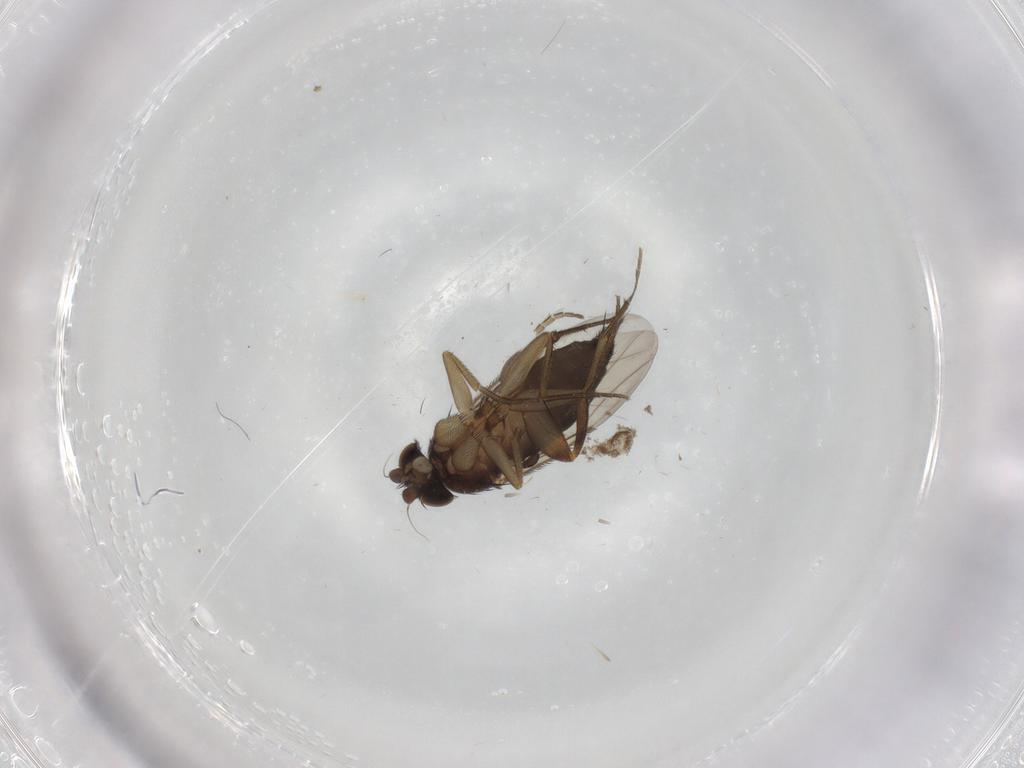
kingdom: Animalia
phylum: Arthropoda
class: Insecta
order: Diptera
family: Chironomidae
